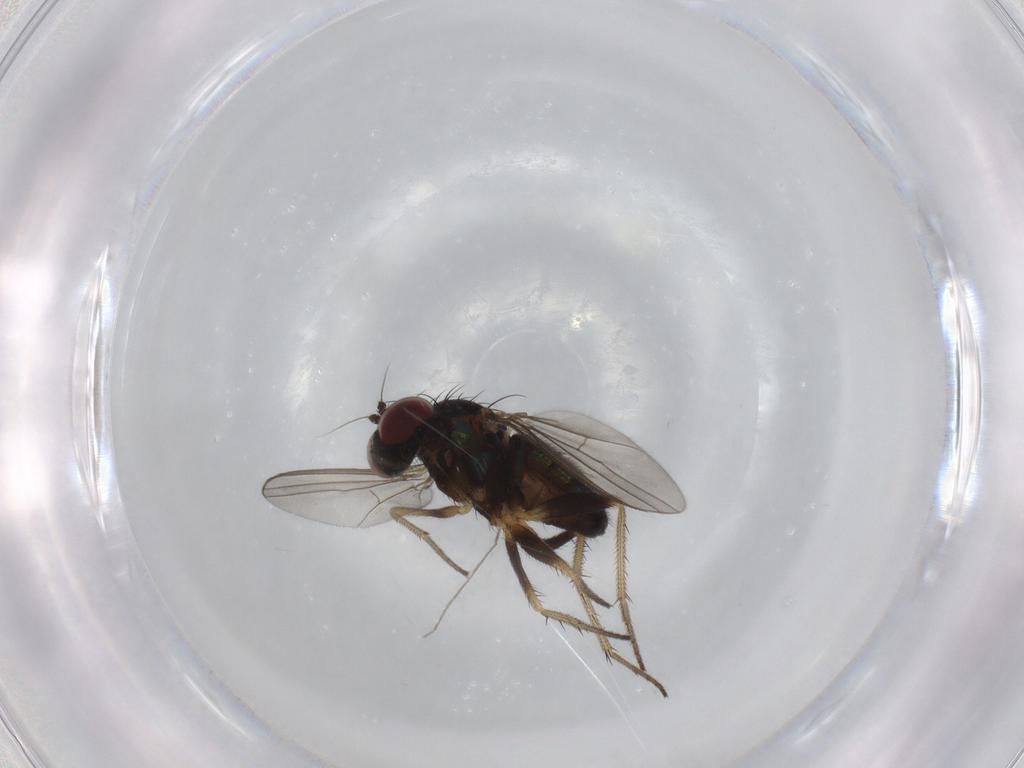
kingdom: Animalia
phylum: Arthropoda
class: Insecta
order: Diptera
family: Chironomidae
